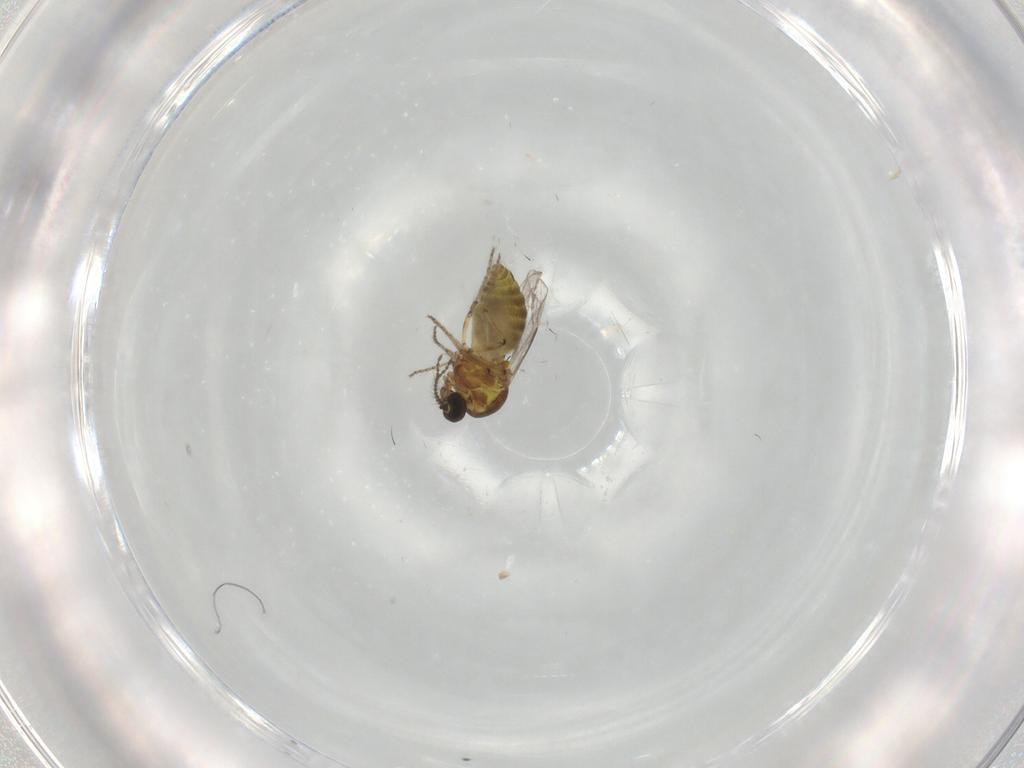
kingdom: Animalia
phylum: Arthropoda
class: Insecta
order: Diptera
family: Ceratopogonidae
